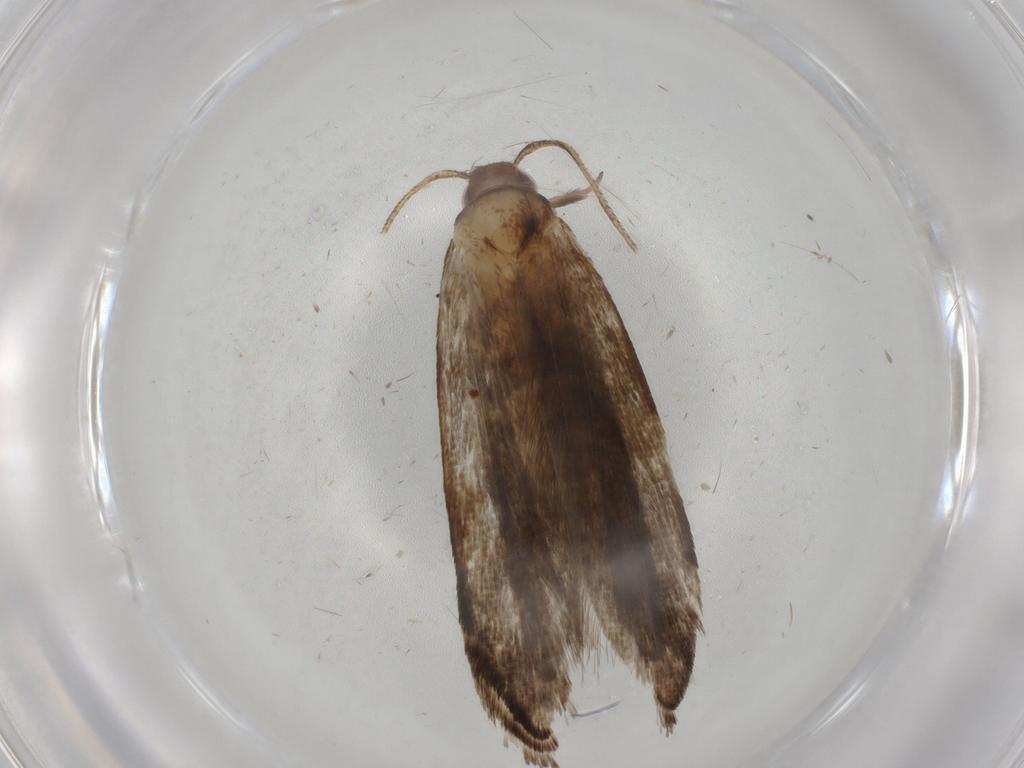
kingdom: Animalia
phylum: Arthropoda
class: Insecta
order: Lepidoptera
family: Gelechiidae
